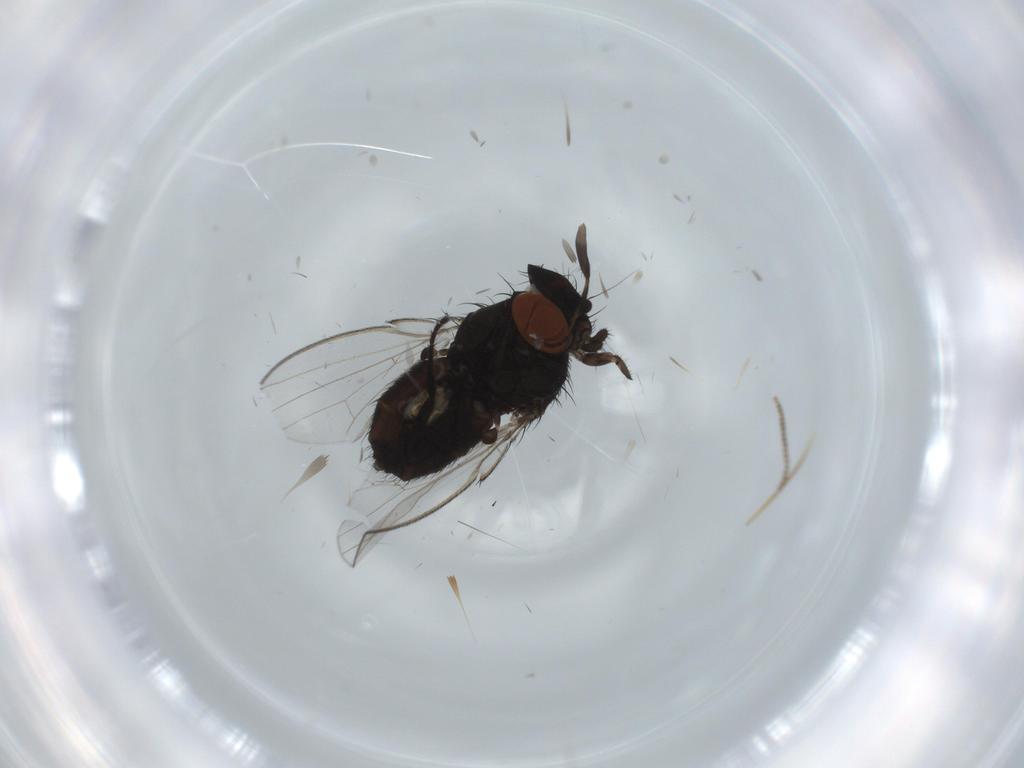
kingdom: Animalia
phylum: Arthropoda
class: Insecta
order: Diptera
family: Milichiidae
